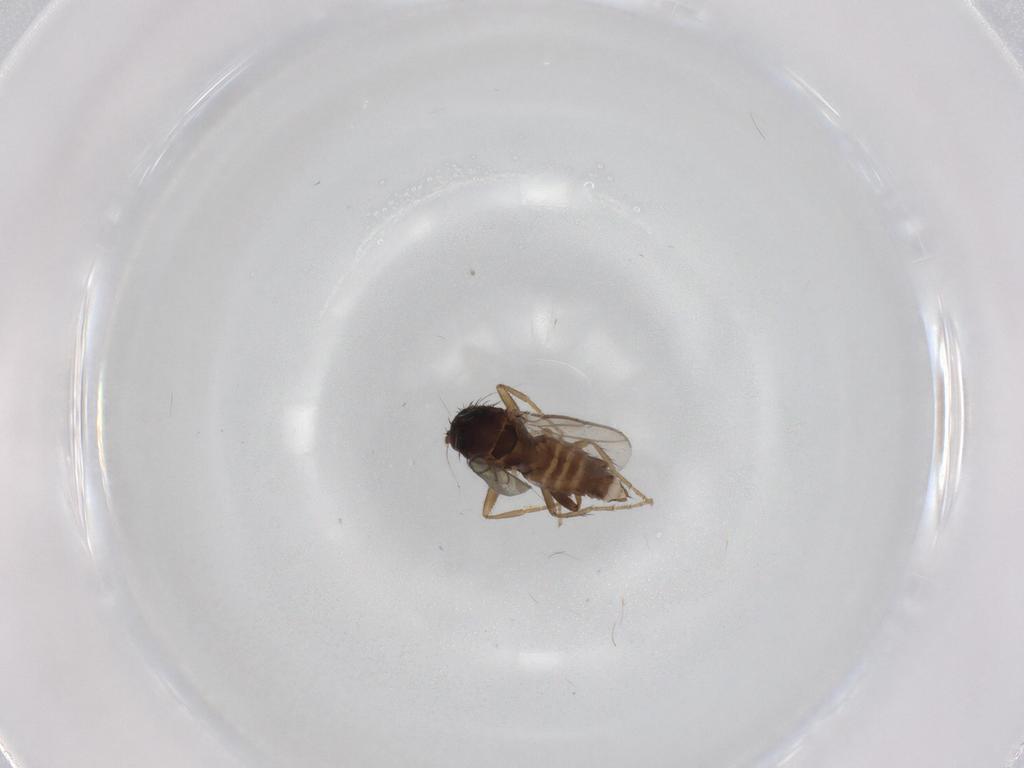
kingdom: Animalia
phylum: Arthropoda
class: Insecta
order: Diptera
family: Sphaeroceridae
